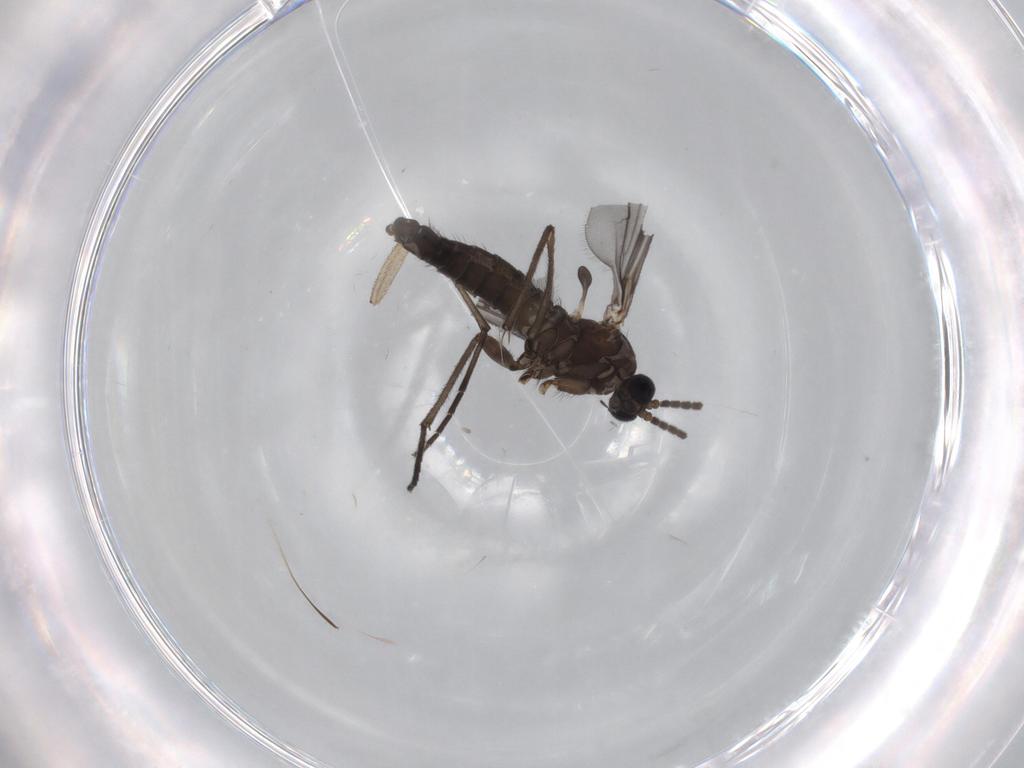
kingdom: Animalia
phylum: Arthropoda
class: Insecta
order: Diptera
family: Sciaridae
